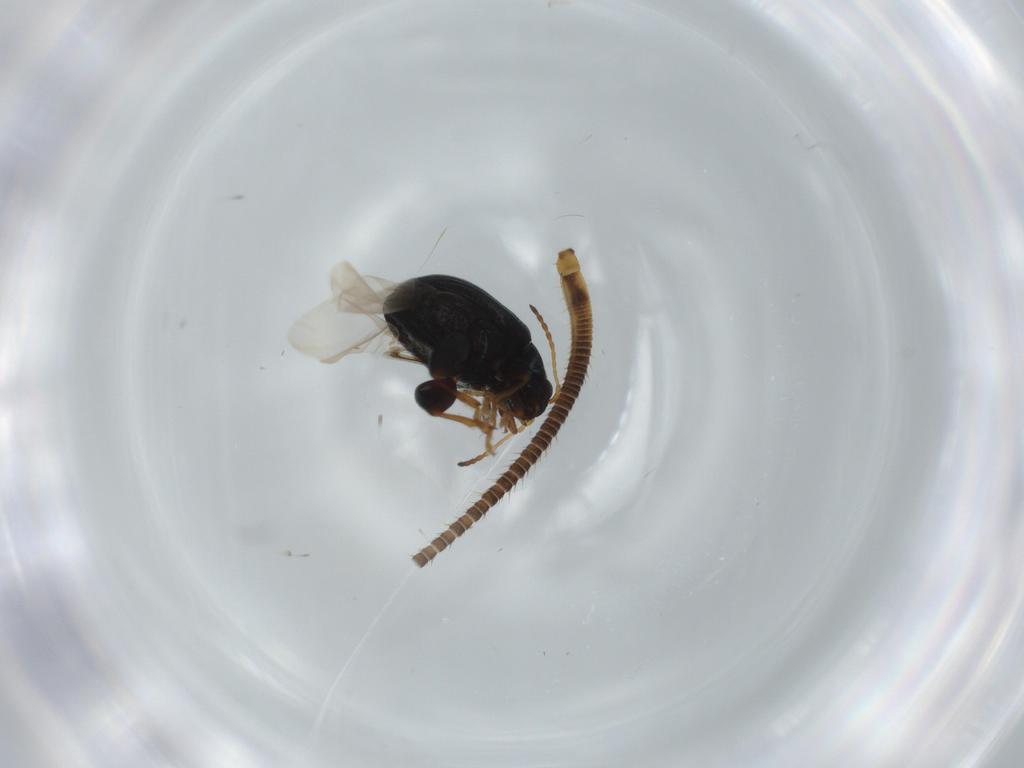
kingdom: Animalia
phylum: Arthropoda
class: Insecta
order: Coleoptera
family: Chrysomelidae
